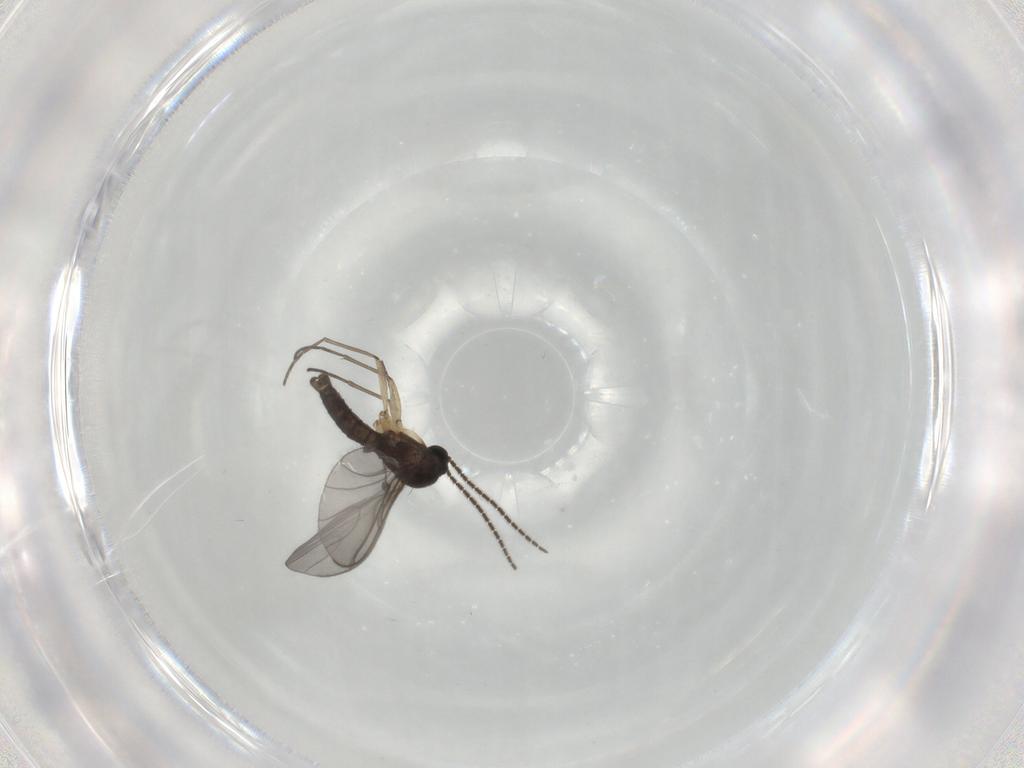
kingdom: Animalia
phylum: Arthropoda
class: Insecta
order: Diptera
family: Sciaridae
